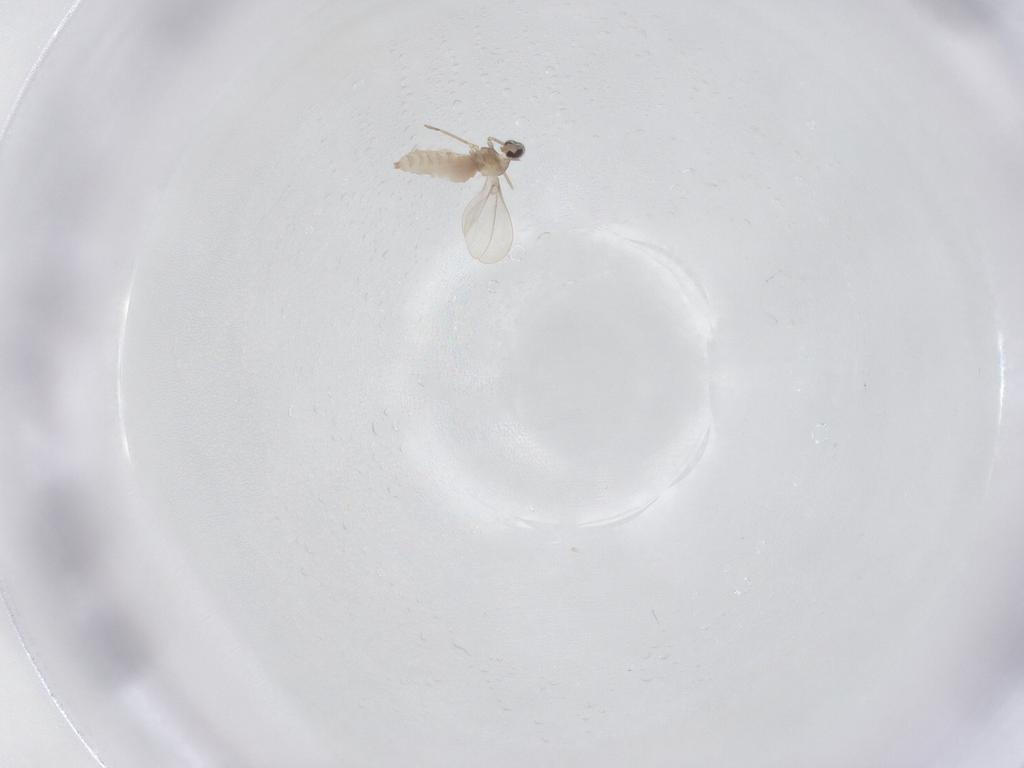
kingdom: Animalia
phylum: Arthropoda
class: Insecta
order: Diptera
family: Cecidomyiidae
